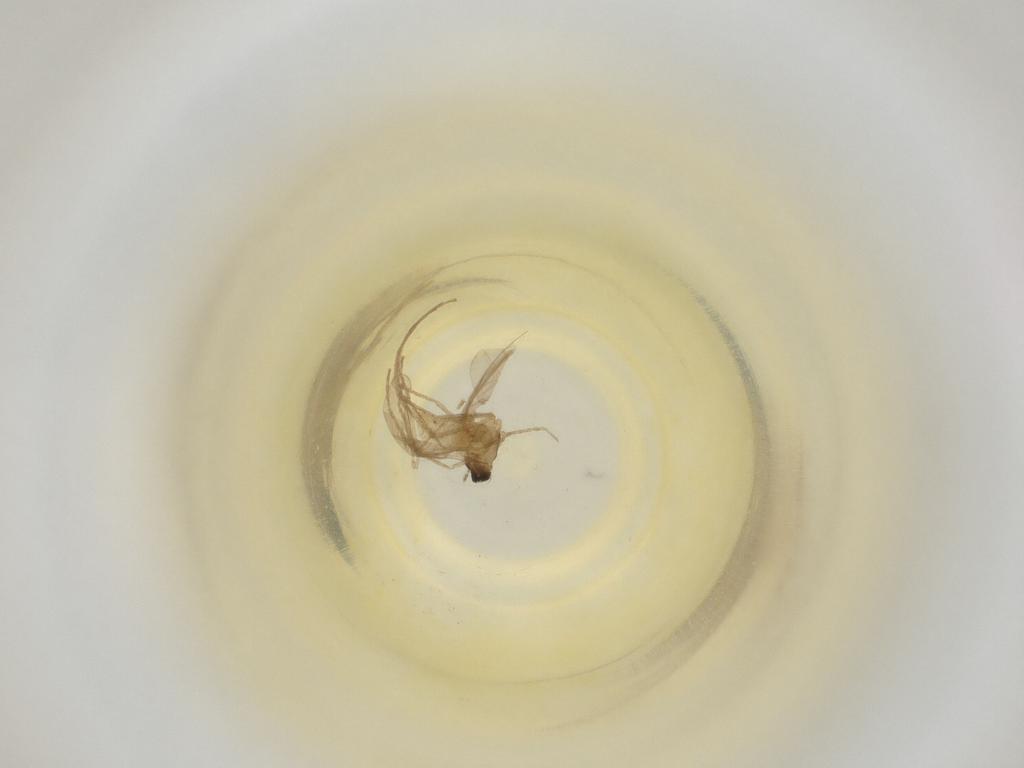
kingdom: Animalia
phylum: Arthropoda
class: Insecta
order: Diptera
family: Cecidomyiidae
